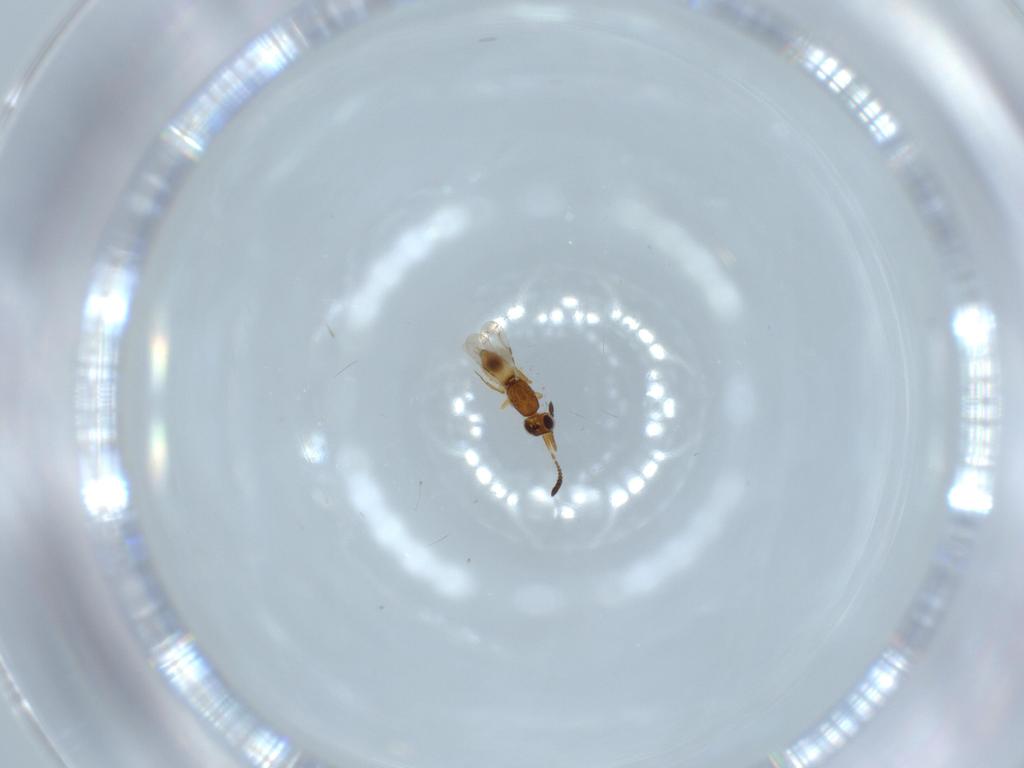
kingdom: Animalia
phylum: Arthropoda
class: Insecta
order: Hymenoptera
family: Ceraphronidae
